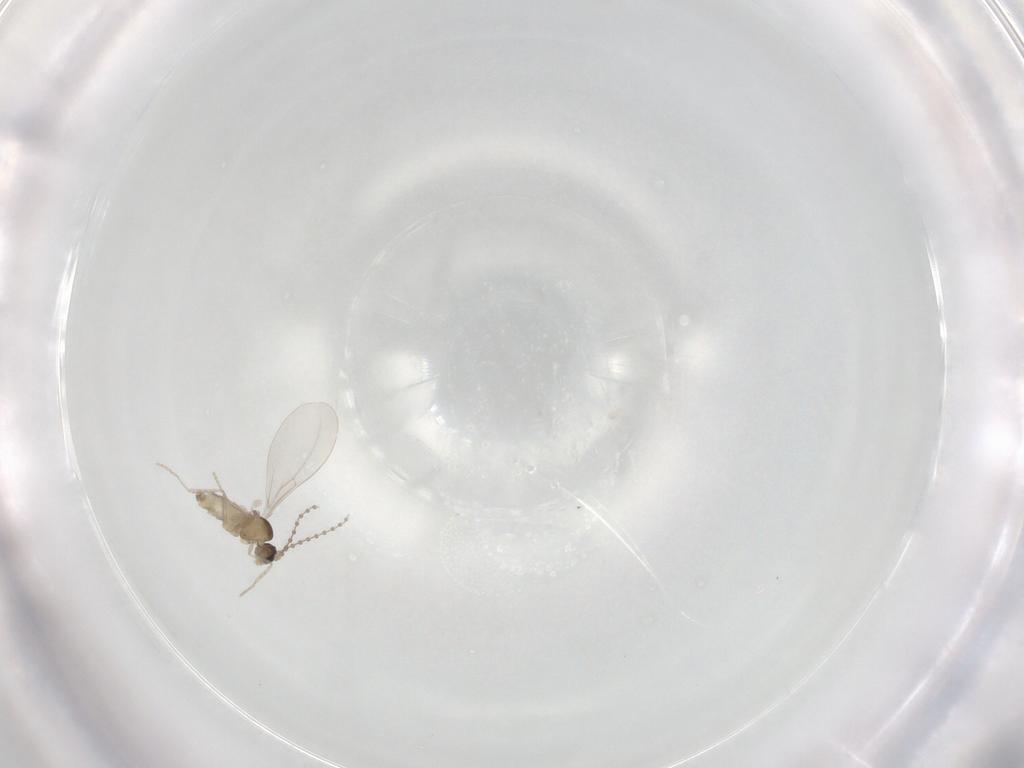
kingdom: Animalia
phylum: Arthropoda
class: Insecta
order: Diptera
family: Cecidomyiidae
